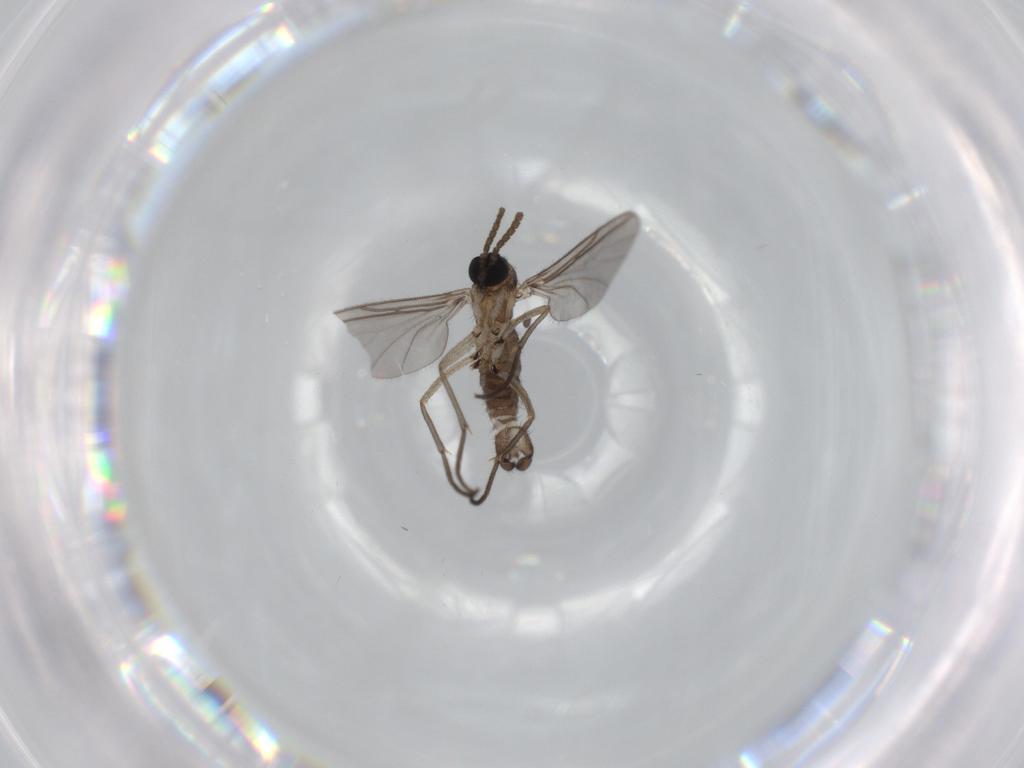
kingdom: Animalia
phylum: Arthropoda
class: Insecta
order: Diptera
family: Sciaridae
